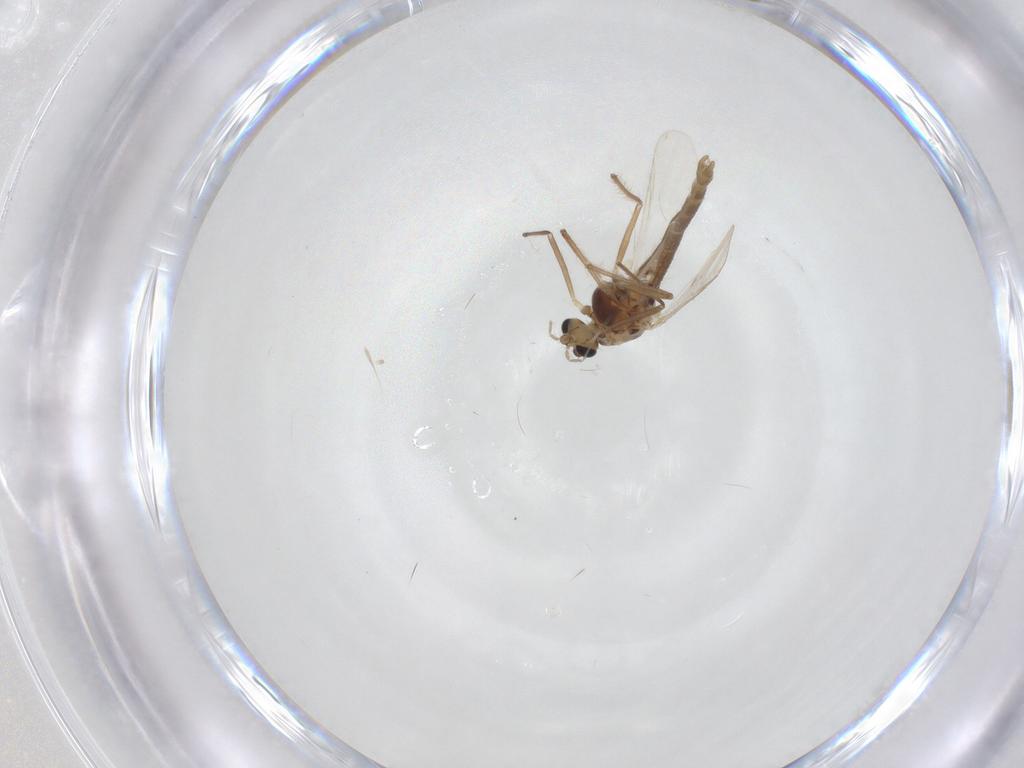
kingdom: Animalia
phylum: Arthropoda
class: Insecta
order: Diptera
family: Chironomidae
